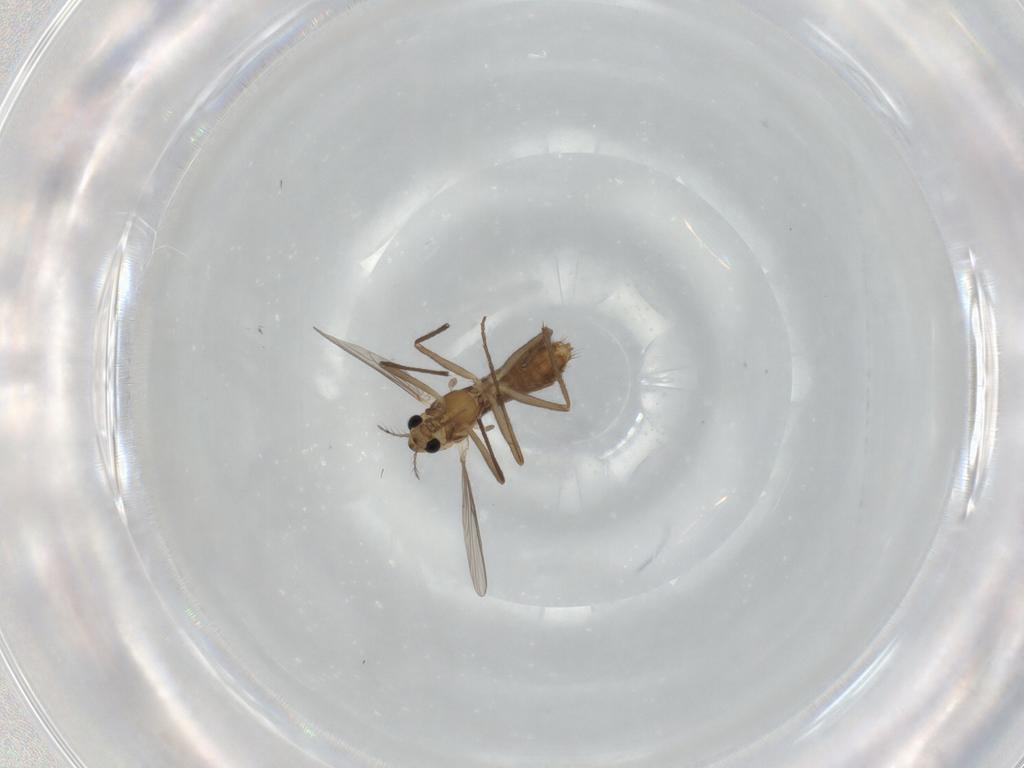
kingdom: Animalia
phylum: Arthropoda
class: Insecta
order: Diptera
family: Chironomidae
